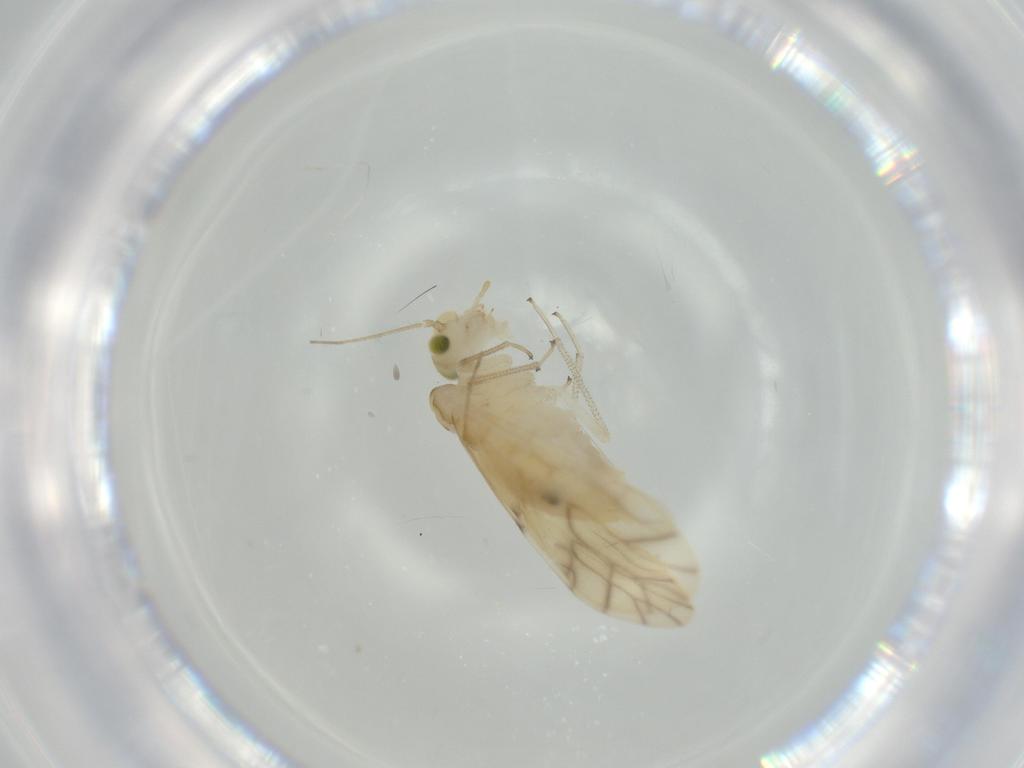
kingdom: Animalia
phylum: Arthropoda
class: Insecta
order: Psocodea
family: Caeciliusidae
